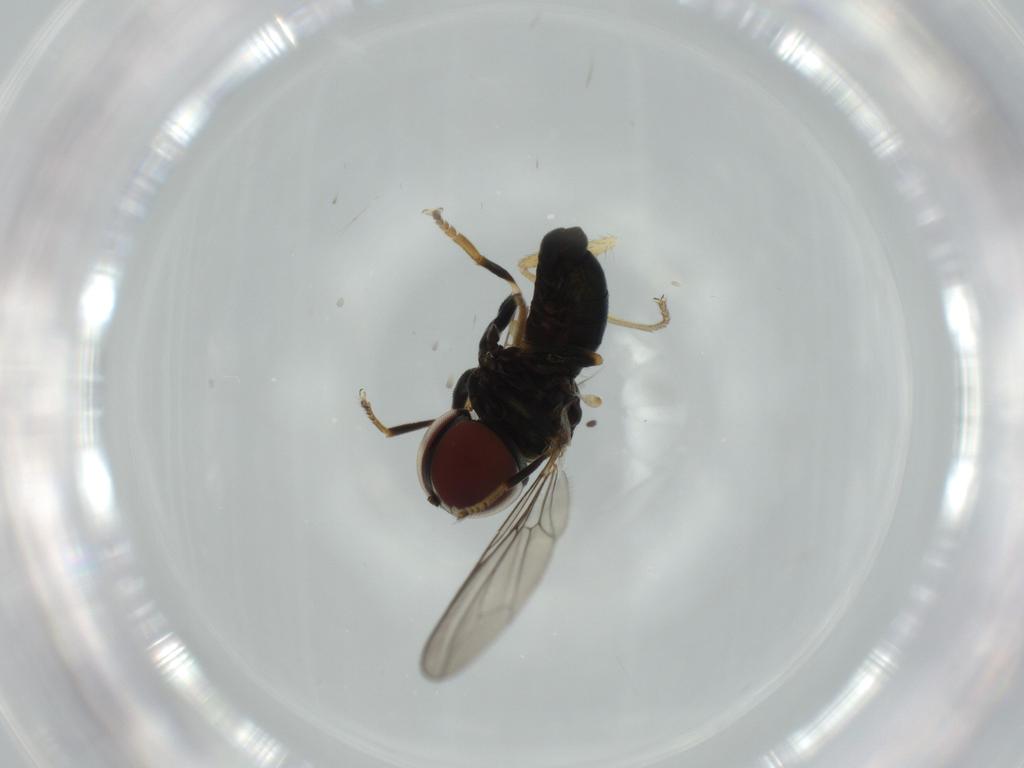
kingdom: Animalia
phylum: Arthropoda
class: Insecta
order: Diptera
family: Pipunculidae
